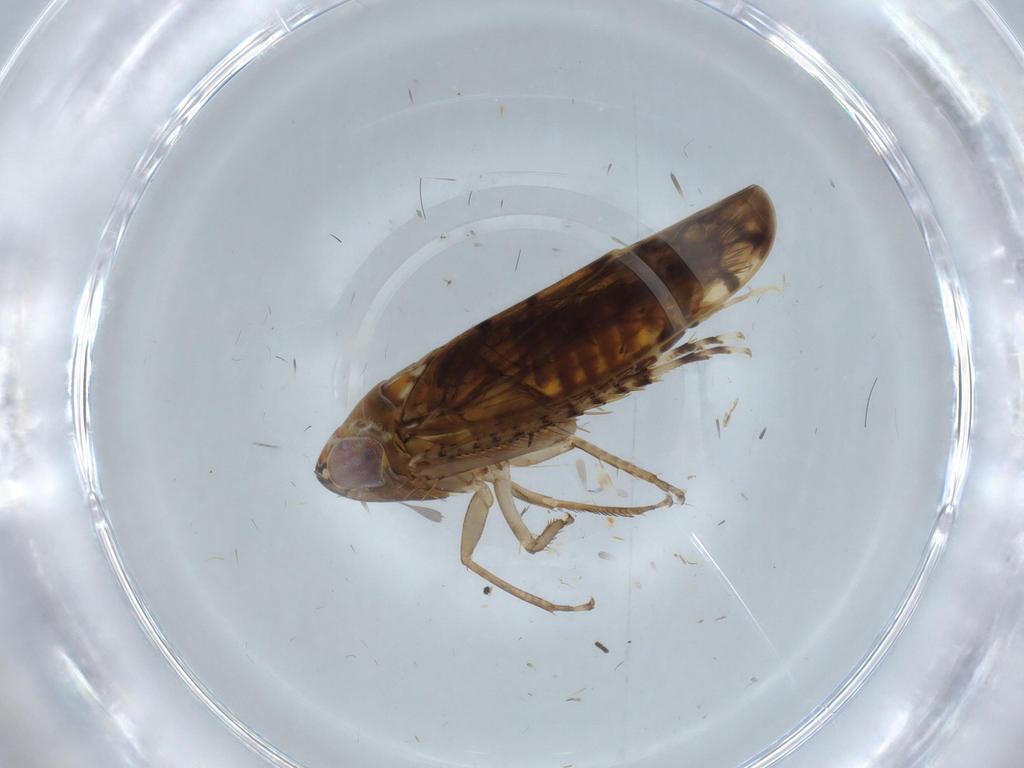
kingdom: Animalia
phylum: Arthropoda
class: Insecta
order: Hemiptera
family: Cicadellidae
